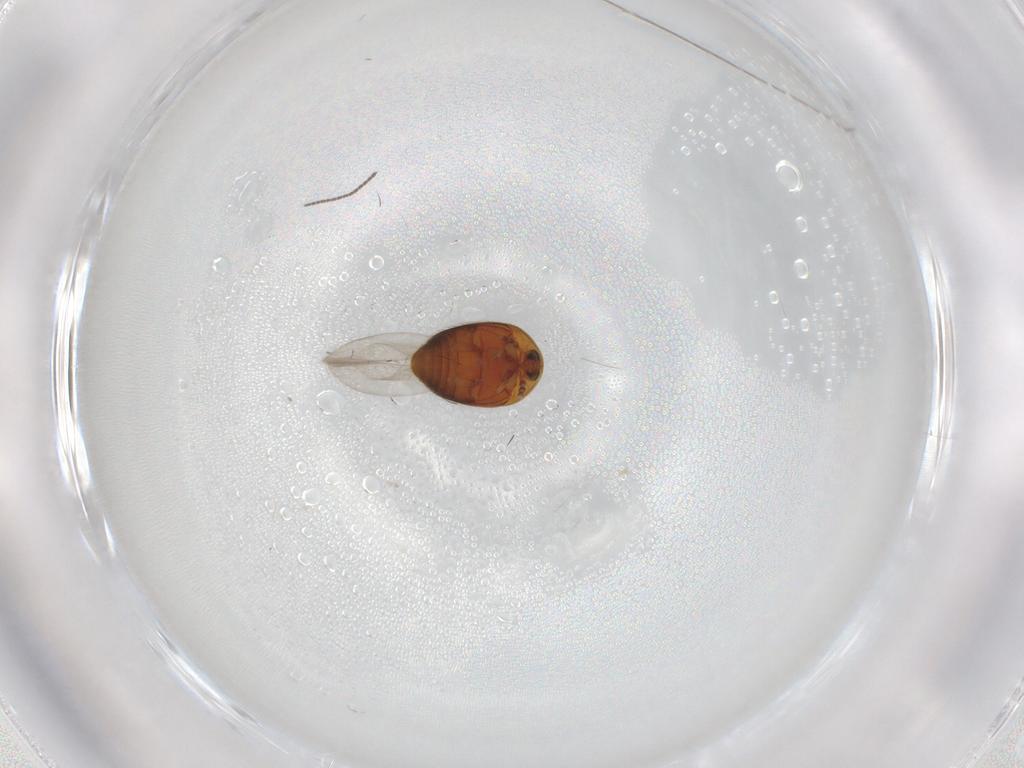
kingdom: Animalia
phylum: Arthropoda
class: Insecta
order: Coleoptera
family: Corylophidae
